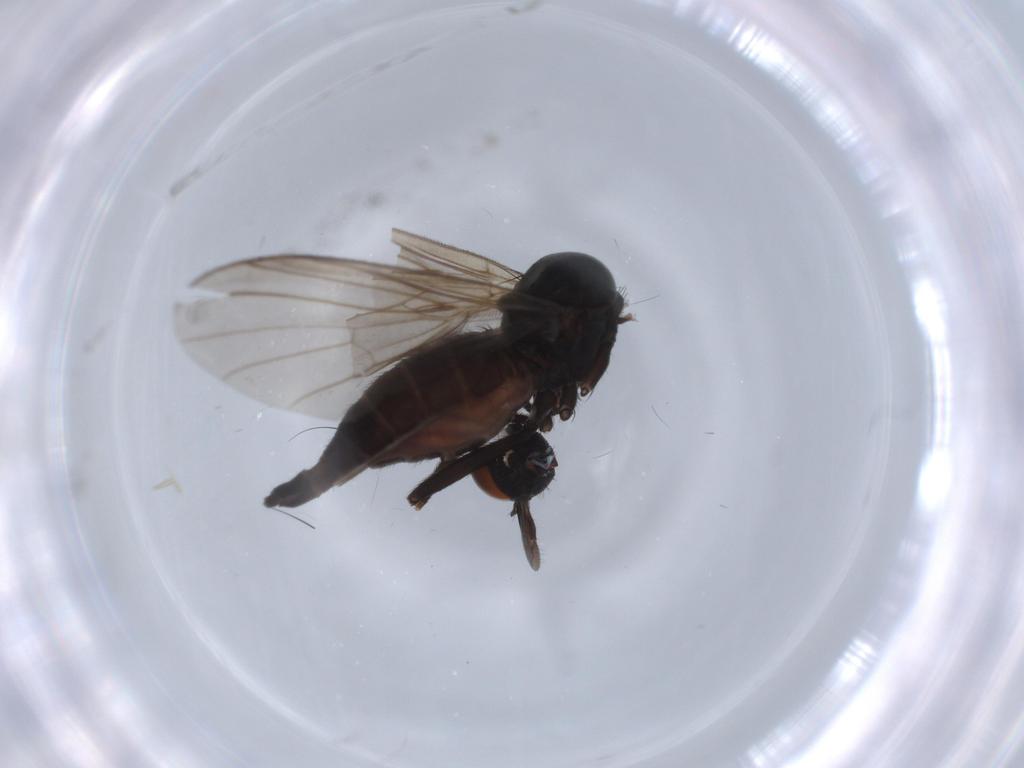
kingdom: Animalia
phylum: Arthropoda
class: Insecta
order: Diptera
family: Empididae
